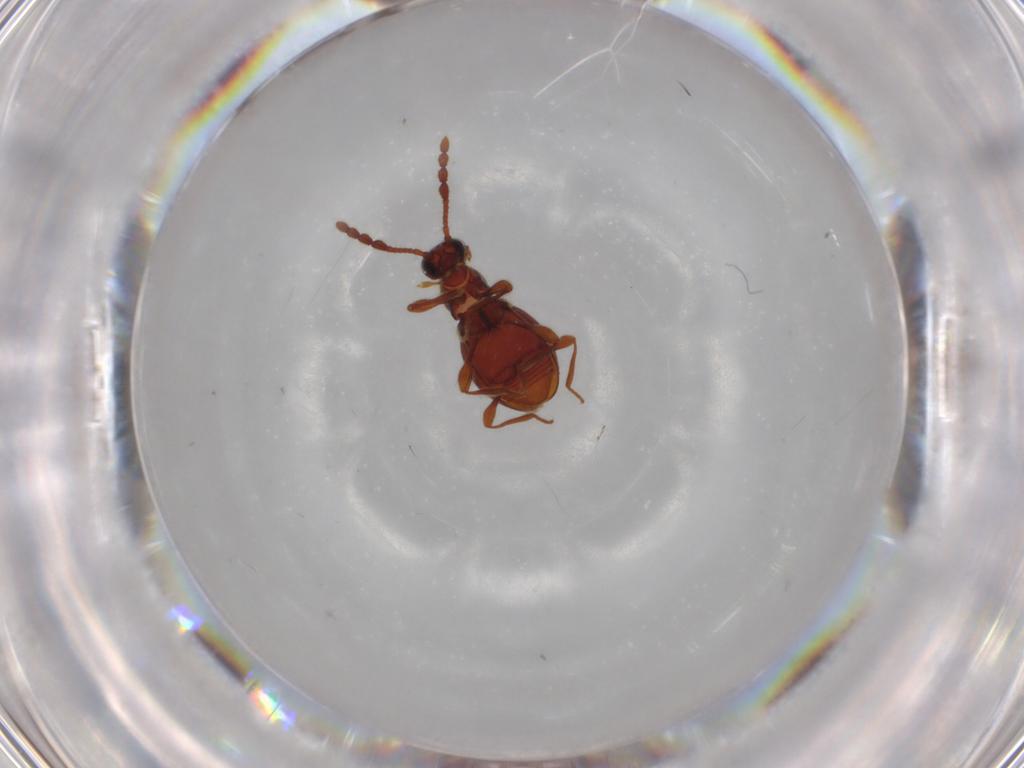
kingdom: Animalia
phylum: Arthropoda
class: Insecta
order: Coleoptera
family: Staphylinidae
